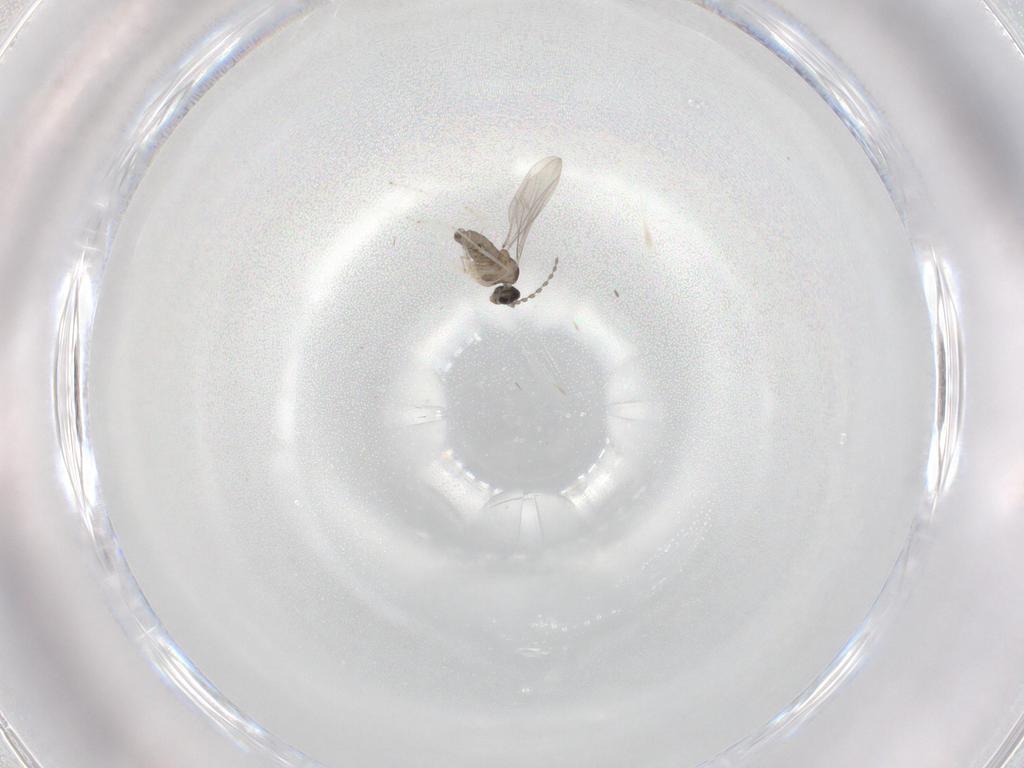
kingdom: Animalia
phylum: Arthropoda
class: Insecta
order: Diptera
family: Cecidomyiidae
